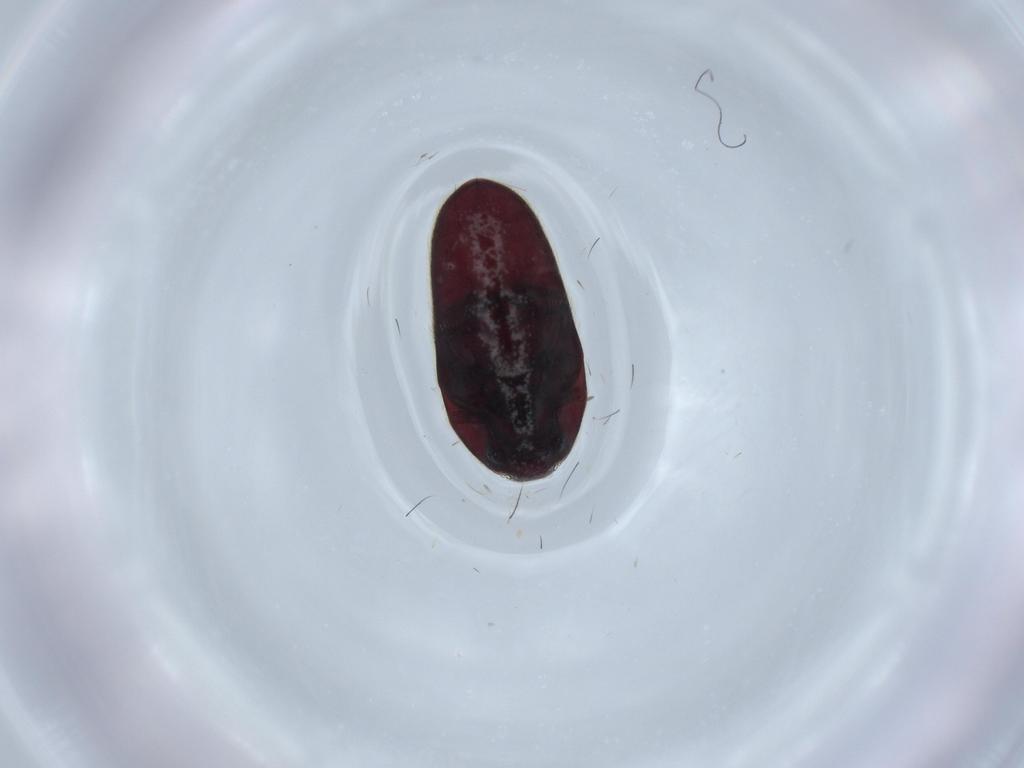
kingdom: Animalia
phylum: Arthropoda
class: Insecta
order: Coleoptera
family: Throscidae
